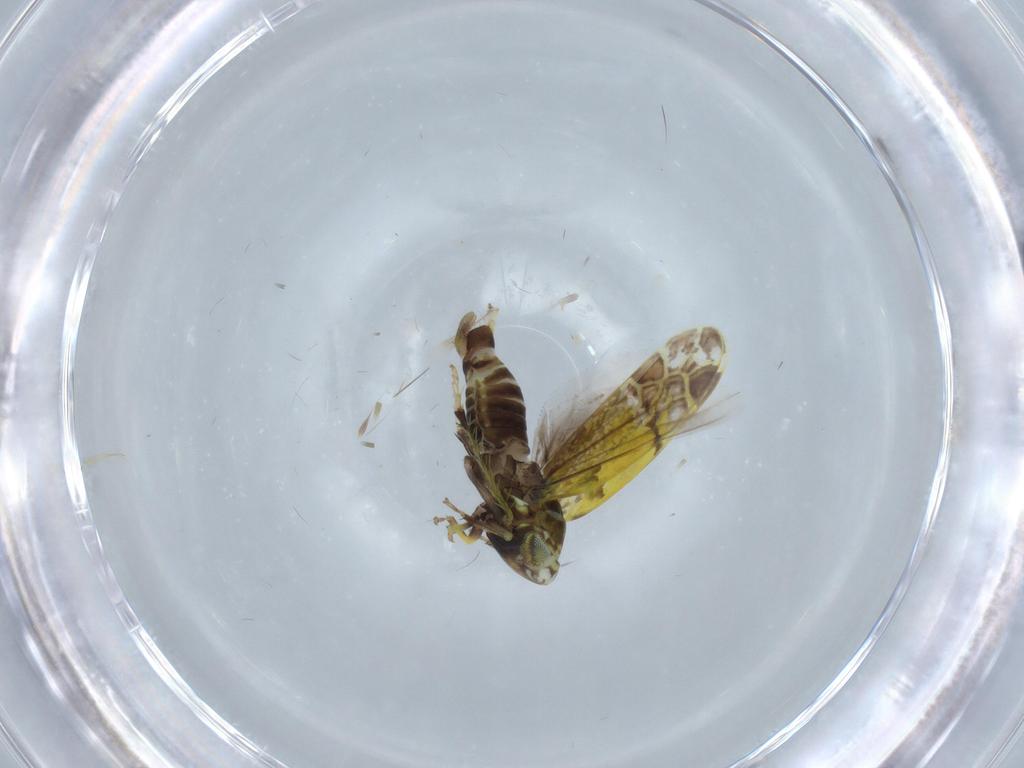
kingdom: Animalia
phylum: Arthropoda
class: Insecta
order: Hemiptera
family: Cicadellidae
